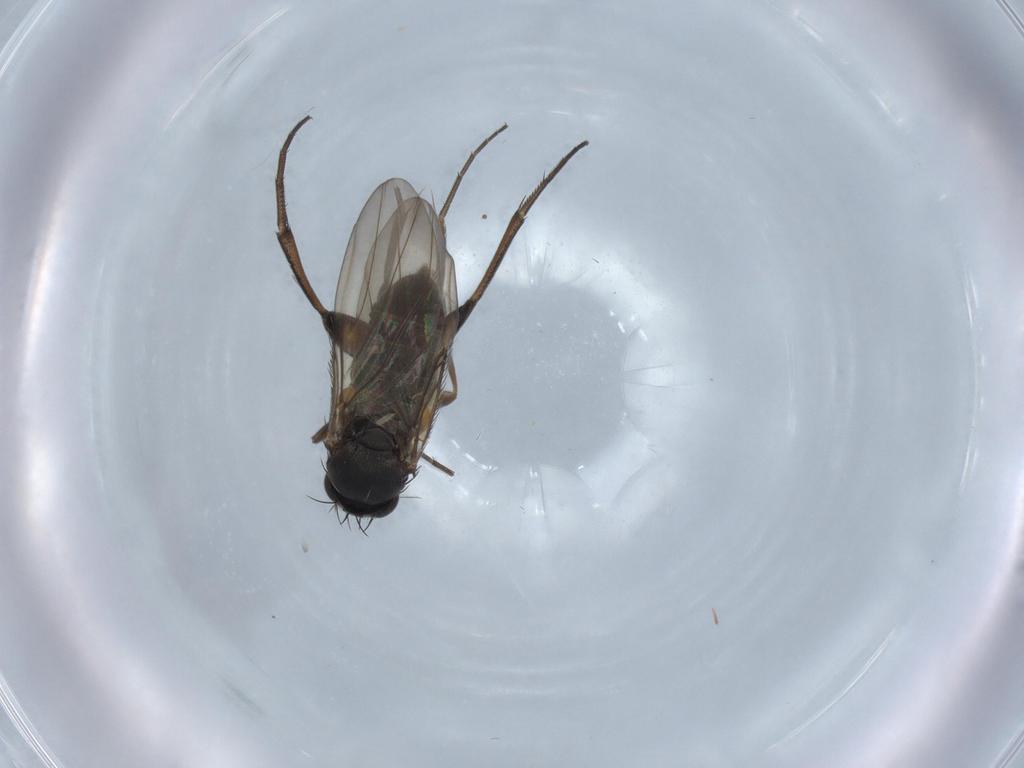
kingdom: Animalia
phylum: Arthropoda
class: Insecta
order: Diptera
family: Phoridae
